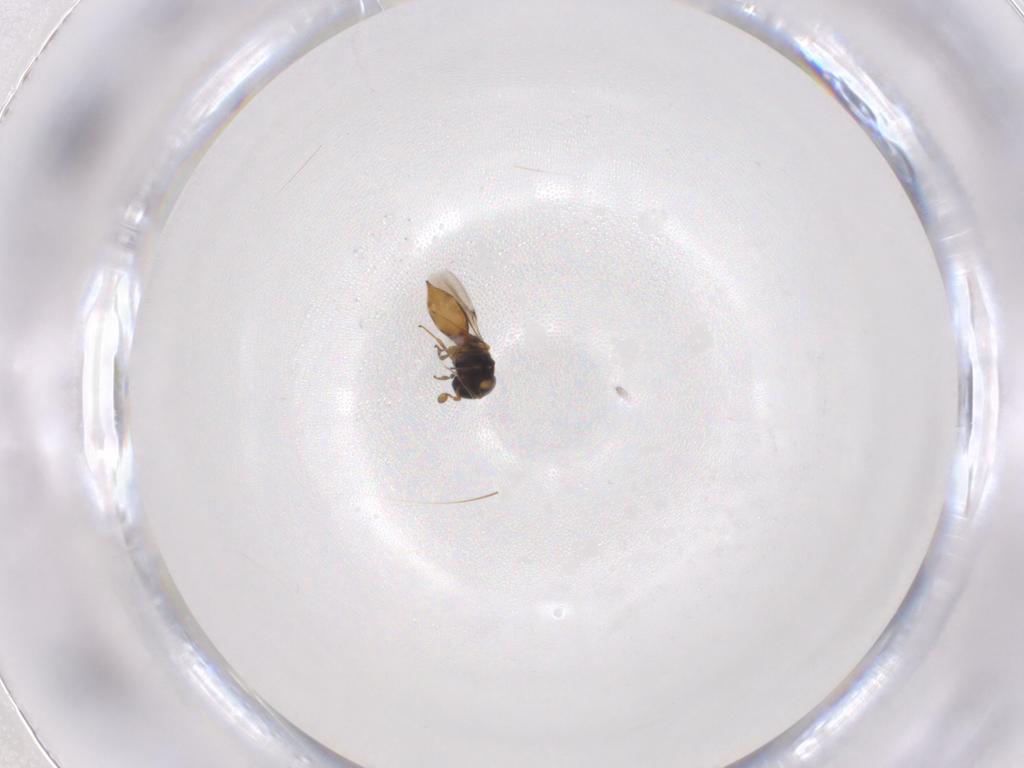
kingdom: Animalia
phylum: Arthropoda
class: Insecta
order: Hymenoptera
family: Scelionidae
